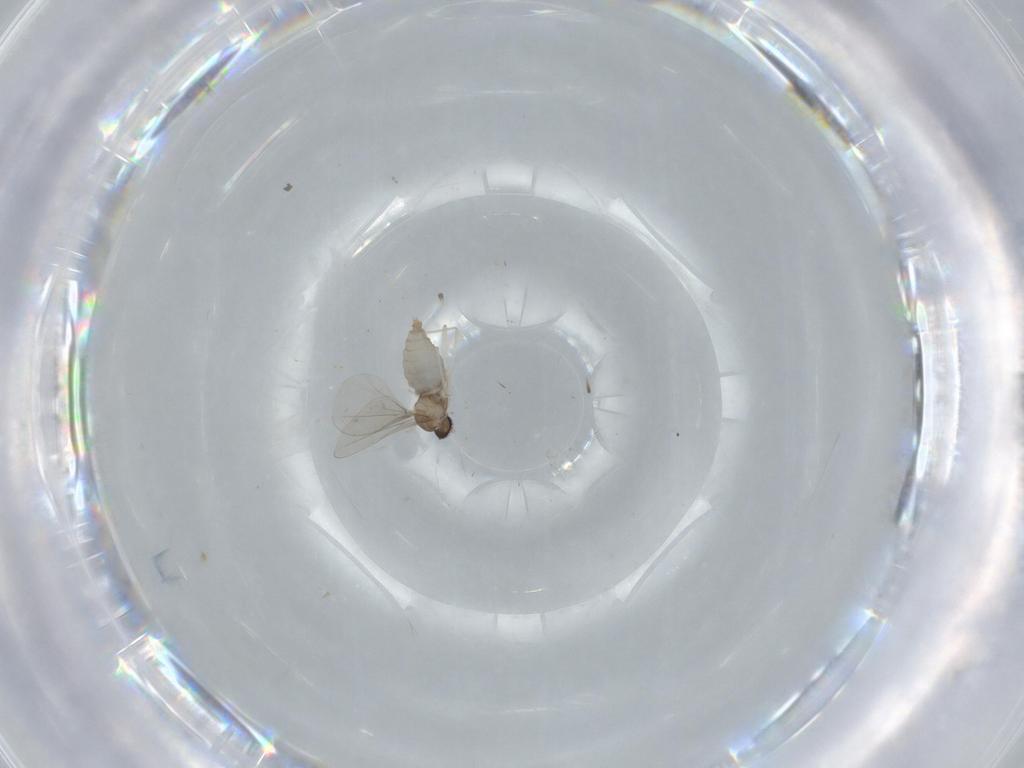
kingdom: Animalia
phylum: Arthropoda
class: Insecta
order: Diptera
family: Cecidomyiidae
